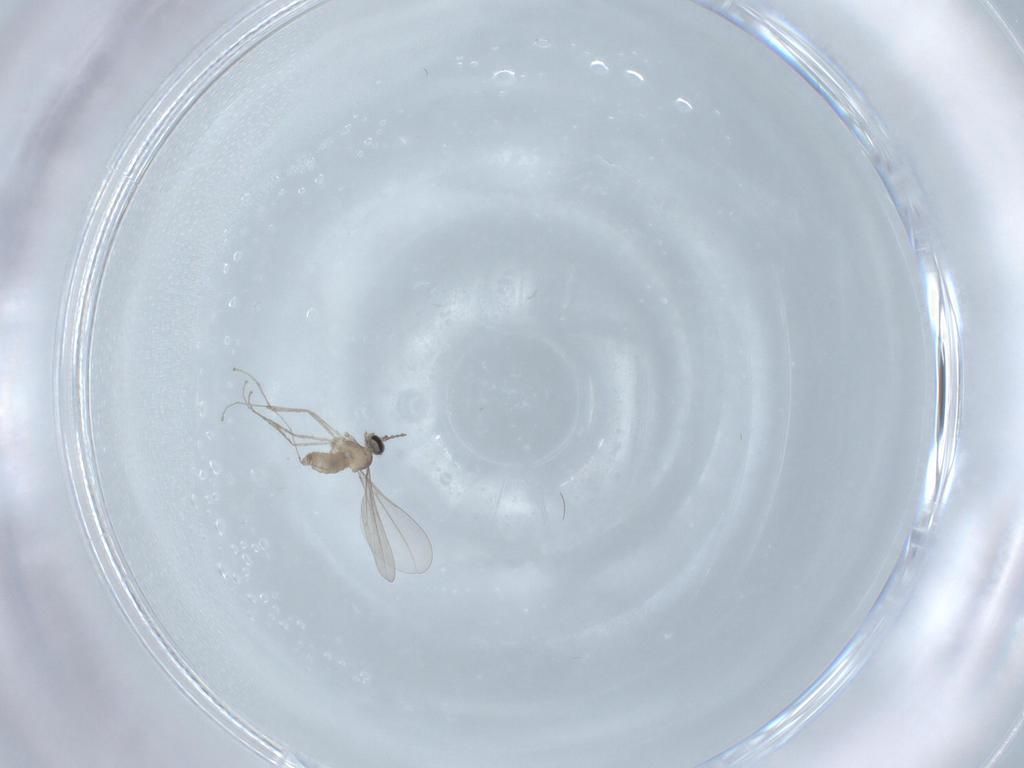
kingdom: Animalia
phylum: Arthropoda
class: Insecta
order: Diptera
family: Cecidomyiidae
